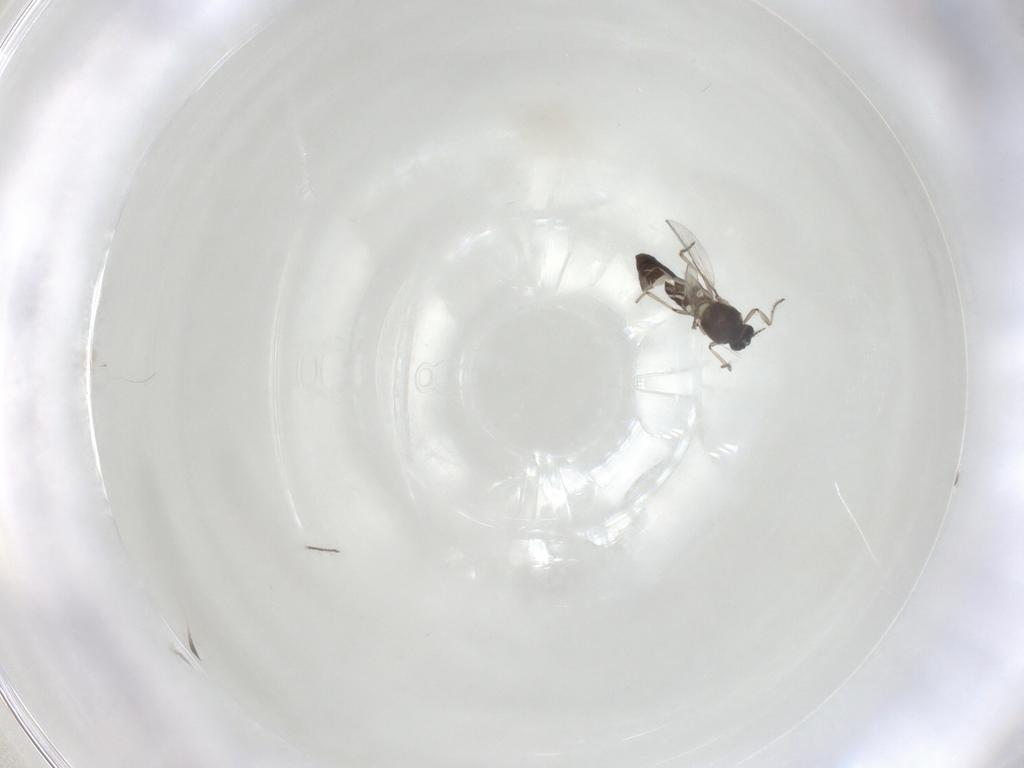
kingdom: Animalia
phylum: Arthropoda
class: Insecta
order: Diptera
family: Ceratopogonidae
